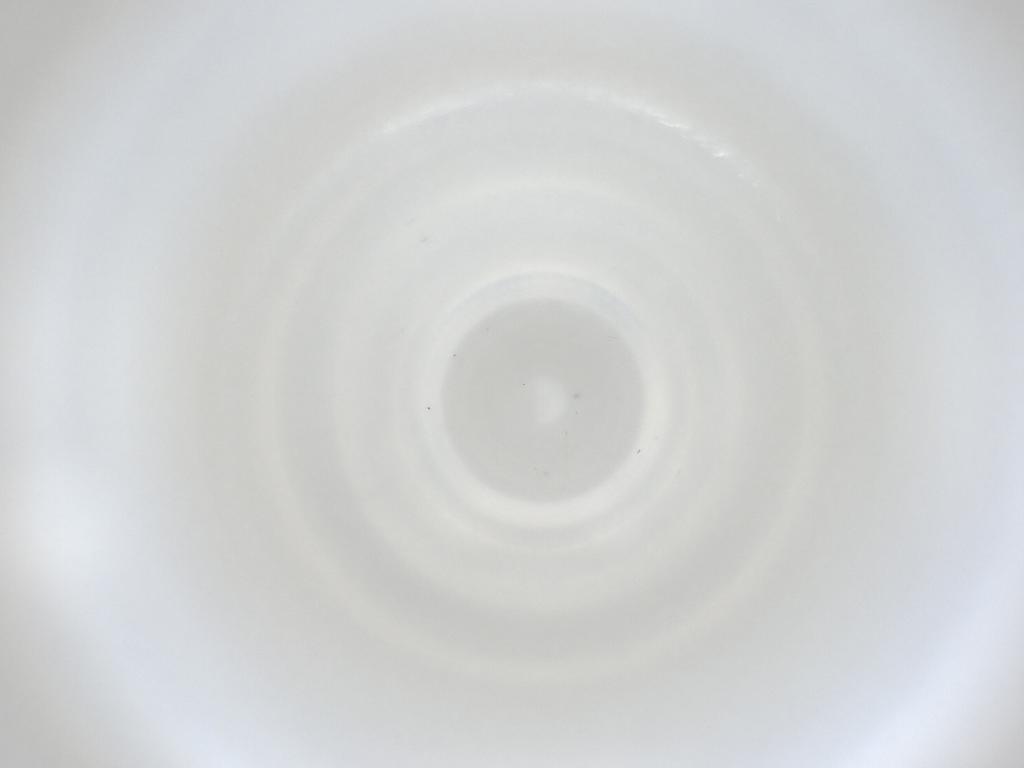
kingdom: Animalia
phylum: Arthropoda
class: Insecta
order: Diptera
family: Cecidomyiidae
